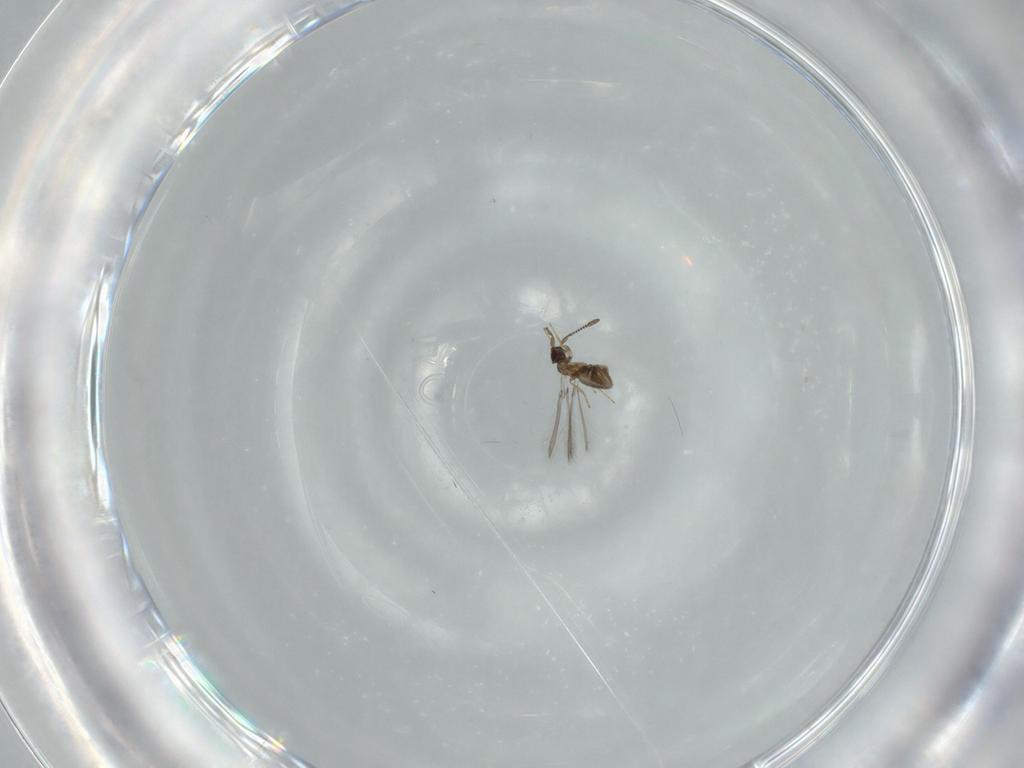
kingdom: Animalia
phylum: Arthropoda
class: Insecta
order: Hymenoptera
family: Mymaridae
